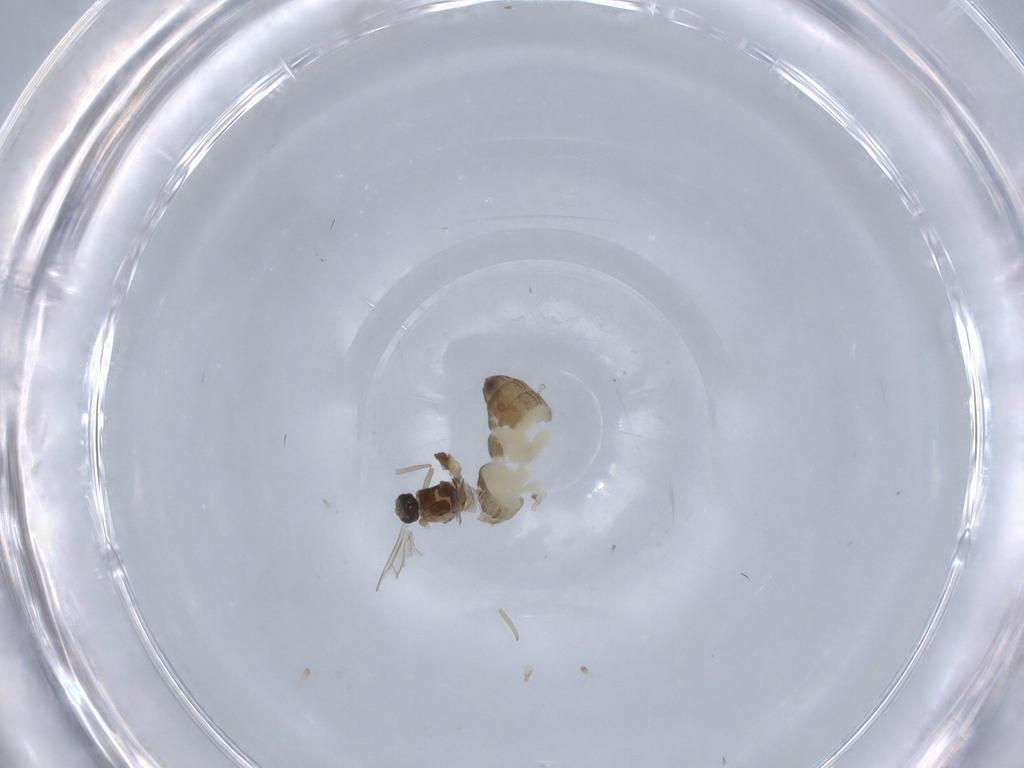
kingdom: Animalia
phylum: Arthropoda
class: Insecta
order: Diptera
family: Cecidomyiidae
